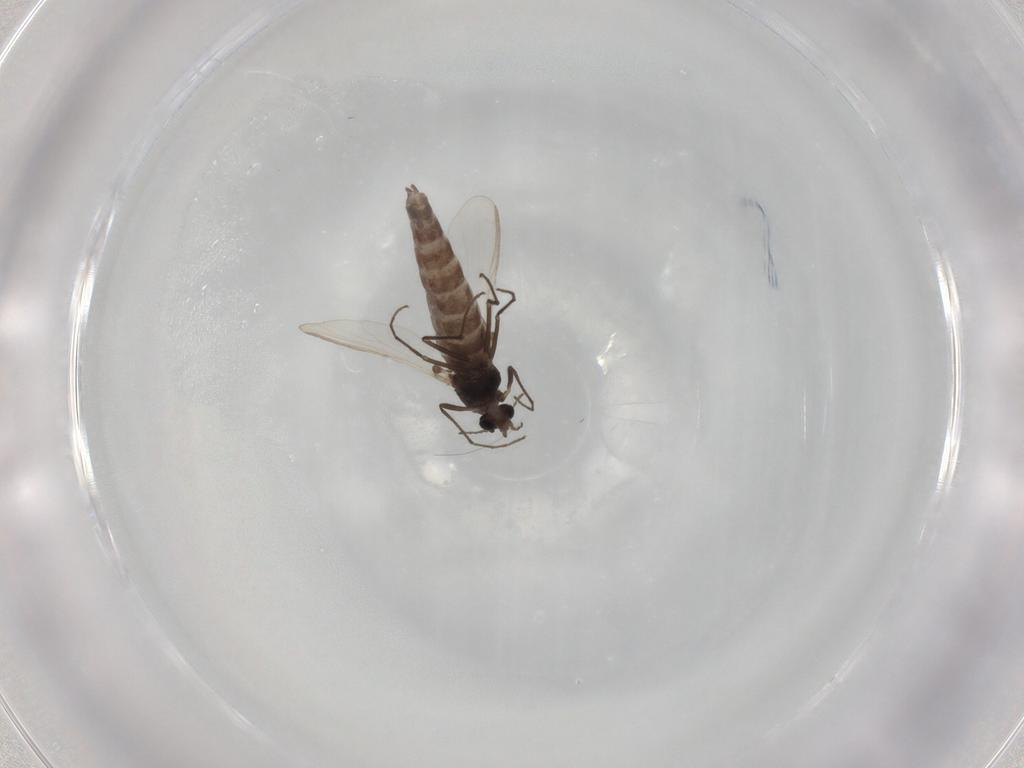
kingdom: Animalia
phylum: Arthropoda
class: Insecta
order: Diptera
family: Chironomidae
